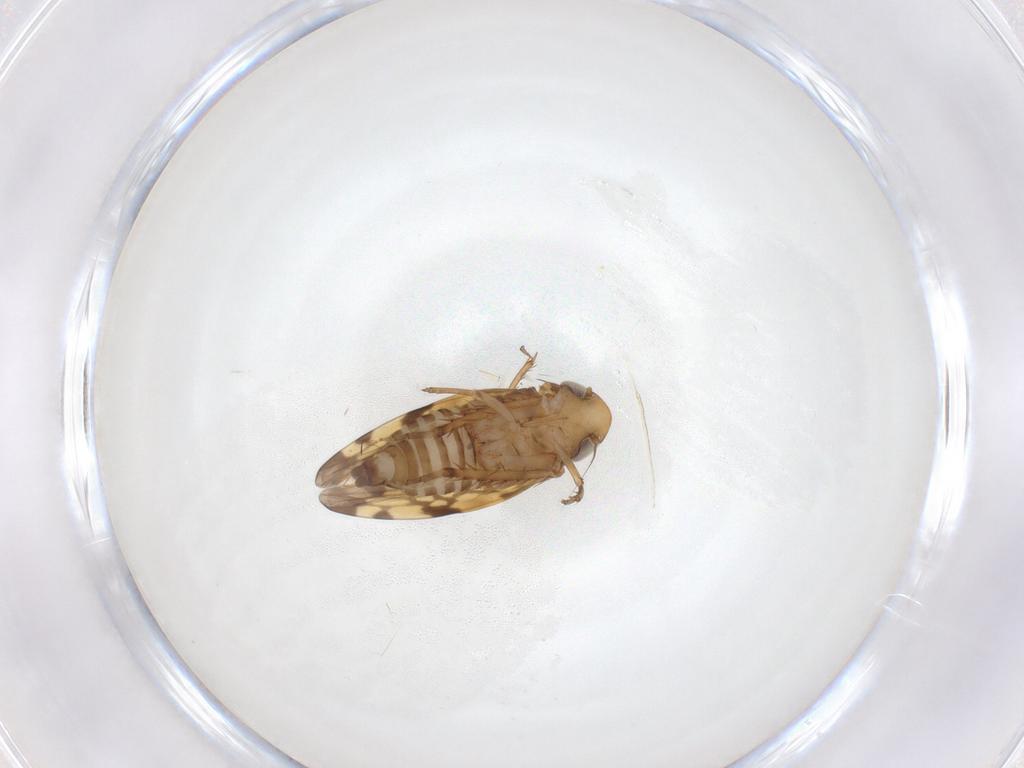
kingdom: Animalia
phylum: Arthropoda
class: Insecta
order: Hemiptera
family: Cicadellidae
